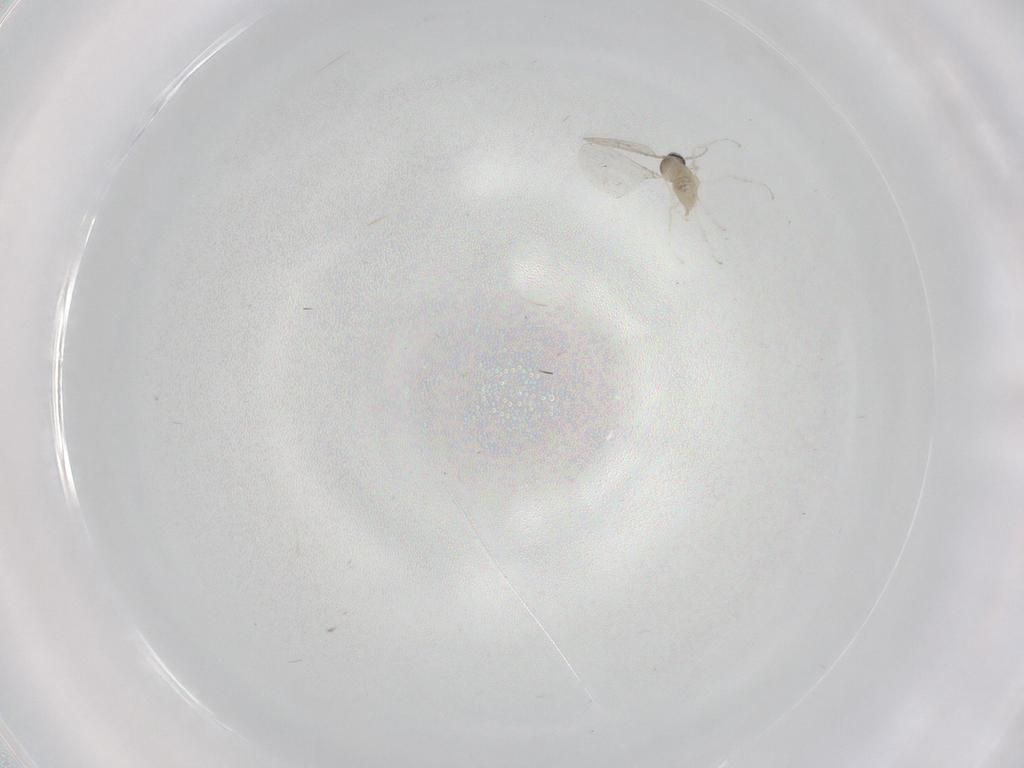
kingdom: Animalia
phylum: Arthropoda
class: Insecta
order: Diptera
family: Cecidomyiidae
